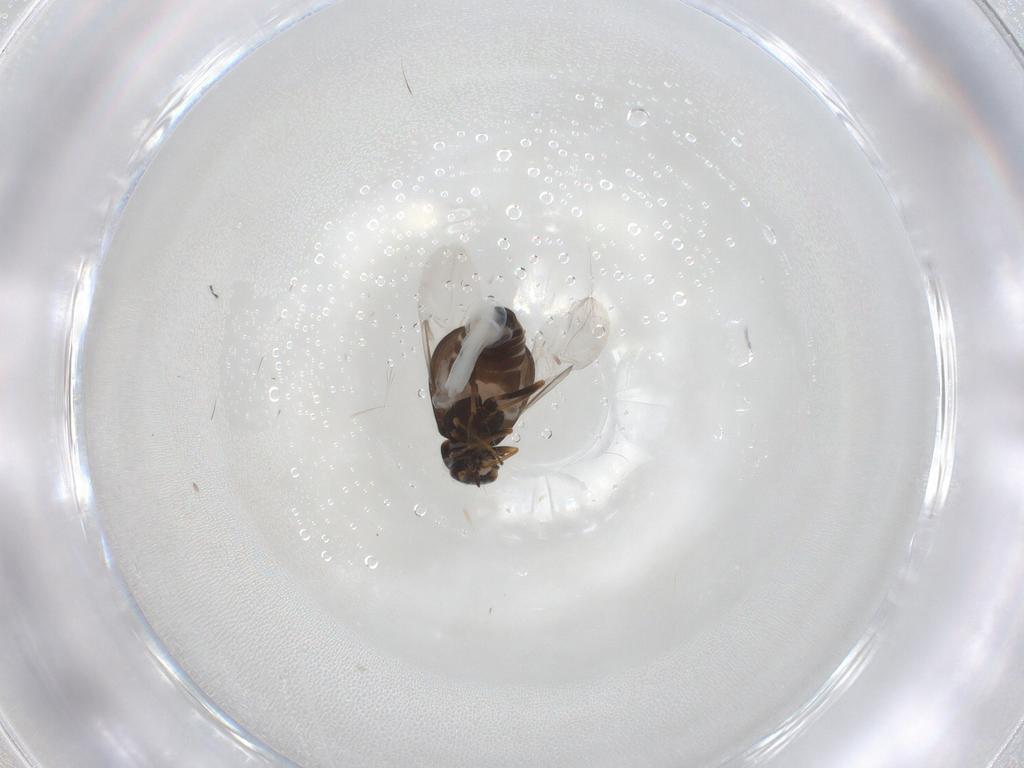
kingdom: Animalia
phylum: Arthropoda
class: Insecta
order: Coleoptera
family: Melyridae
